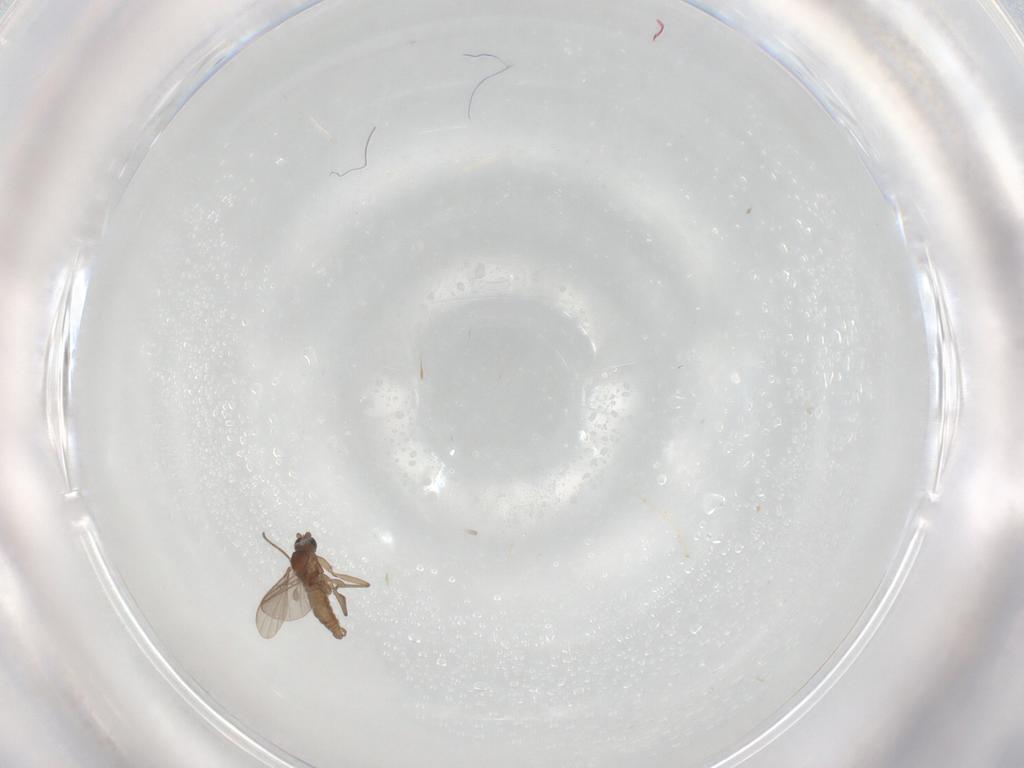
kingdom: Animalia
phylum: Arthropoda
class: Insecta
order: Diptera
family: Sciaridae
